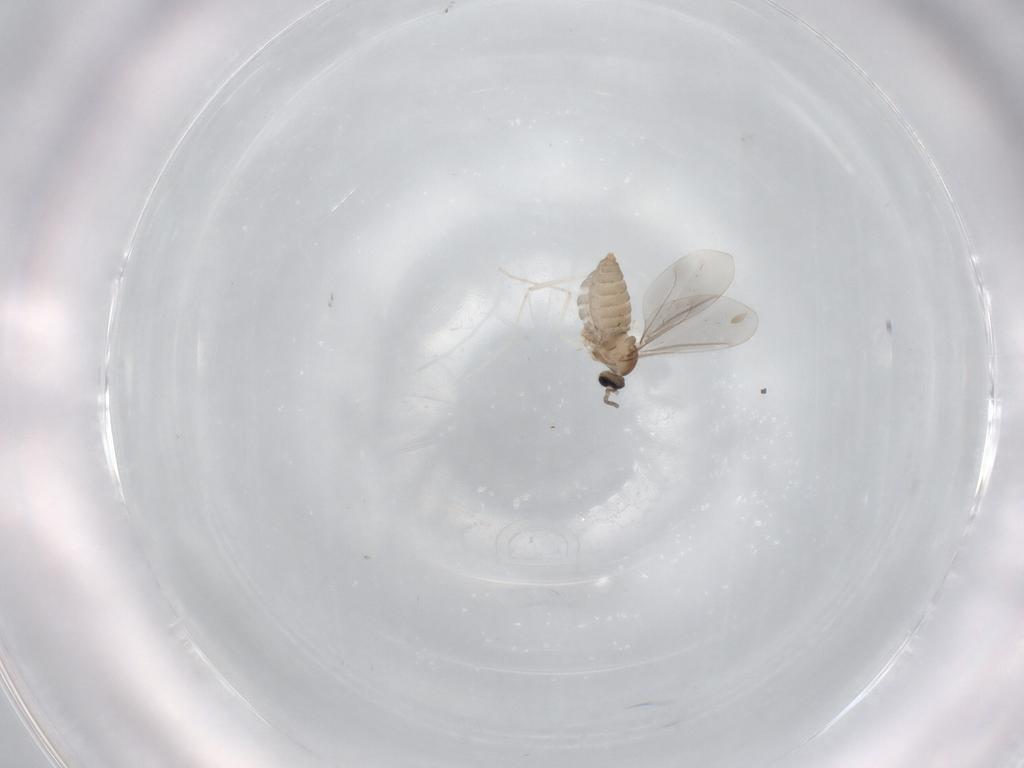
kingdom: Animalia
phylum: Arthropoda
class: Insecta
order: Diptera
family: Cecidomyiidae
